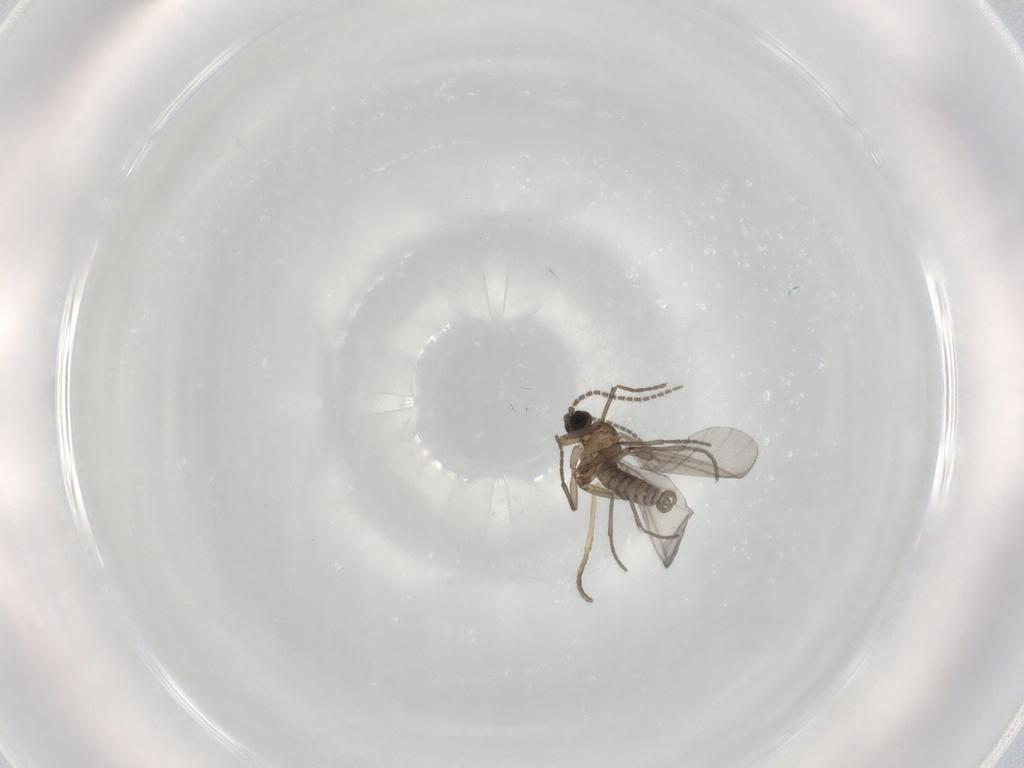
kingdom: Animalia
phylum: Arthropoda
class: Insecta
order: Diptera
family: Sciaridae
